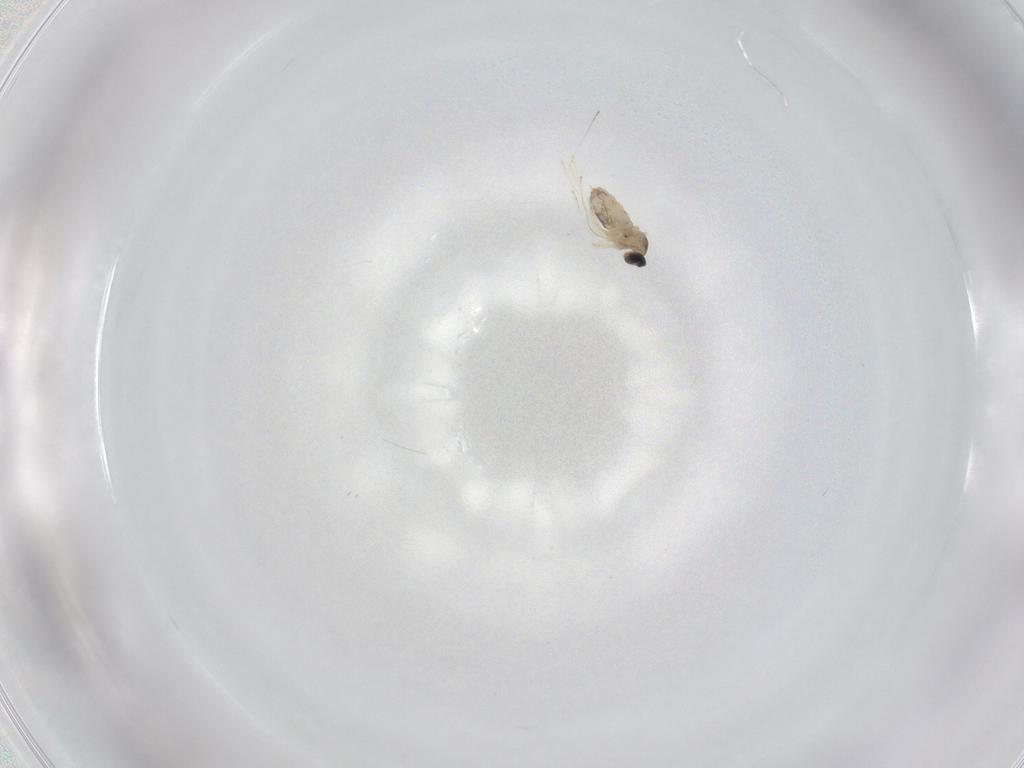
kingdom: Animalia
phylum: Arthropoda
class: Insecta
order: Diptera
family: Cecidomyiidae
